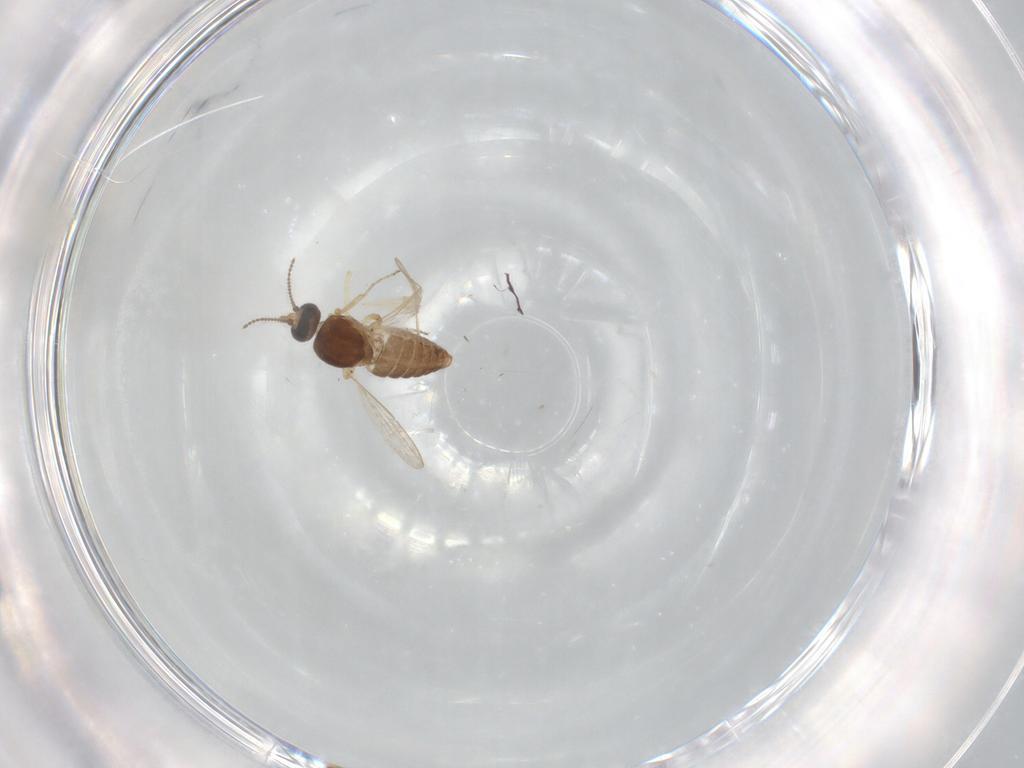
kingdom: Animalia
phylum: Arthropoda
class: Insecta
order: Diptera
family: Ceratopogonidae
